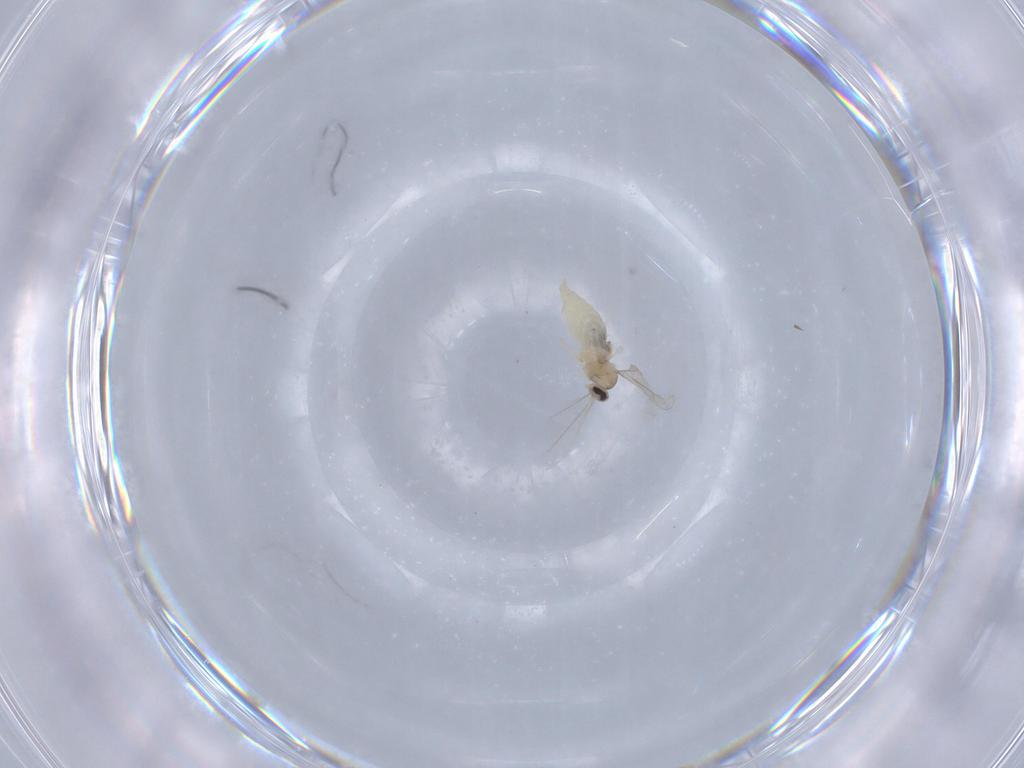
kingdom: Animalia
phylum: Arthropoda
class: Insecta
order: Diptera
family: Cecidomyiidae
